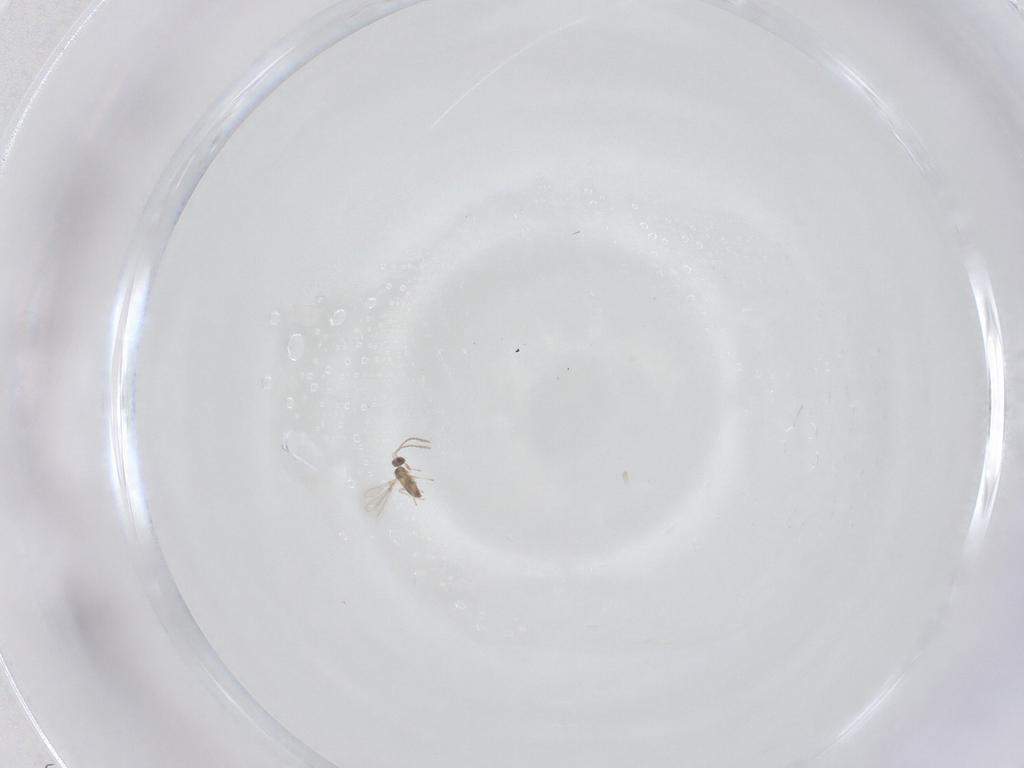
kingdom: Animalia
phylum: Arthropoda
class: Insecta
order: Hymenoptera
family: Mymaridae
